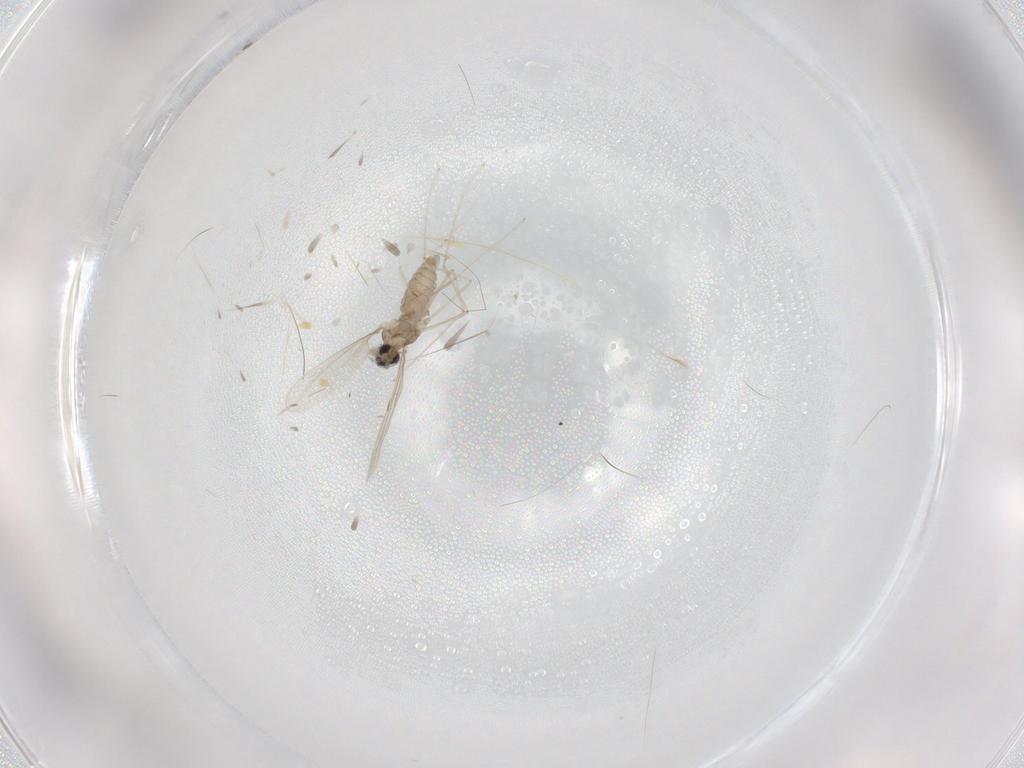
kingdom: Animalia
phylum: Arthropoda
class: Insecta
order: Diptera
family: Cecidomyiidae
